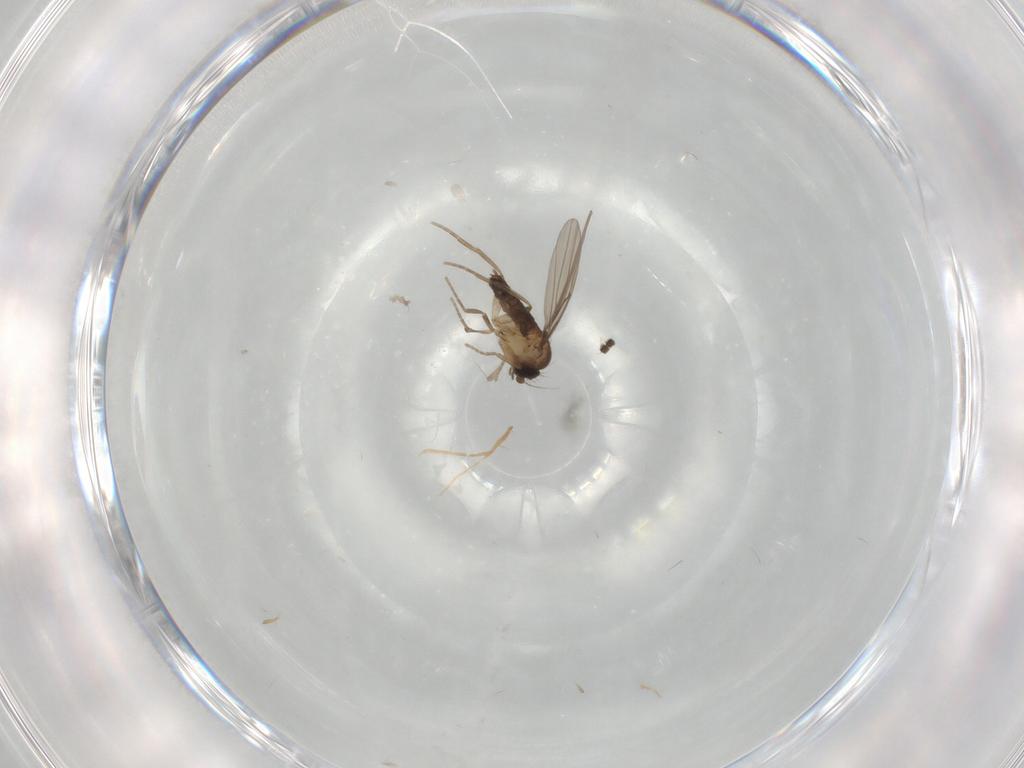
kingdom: Animalia
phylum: Arthropoda
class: Insecta
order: Diptera
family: Phoridae
